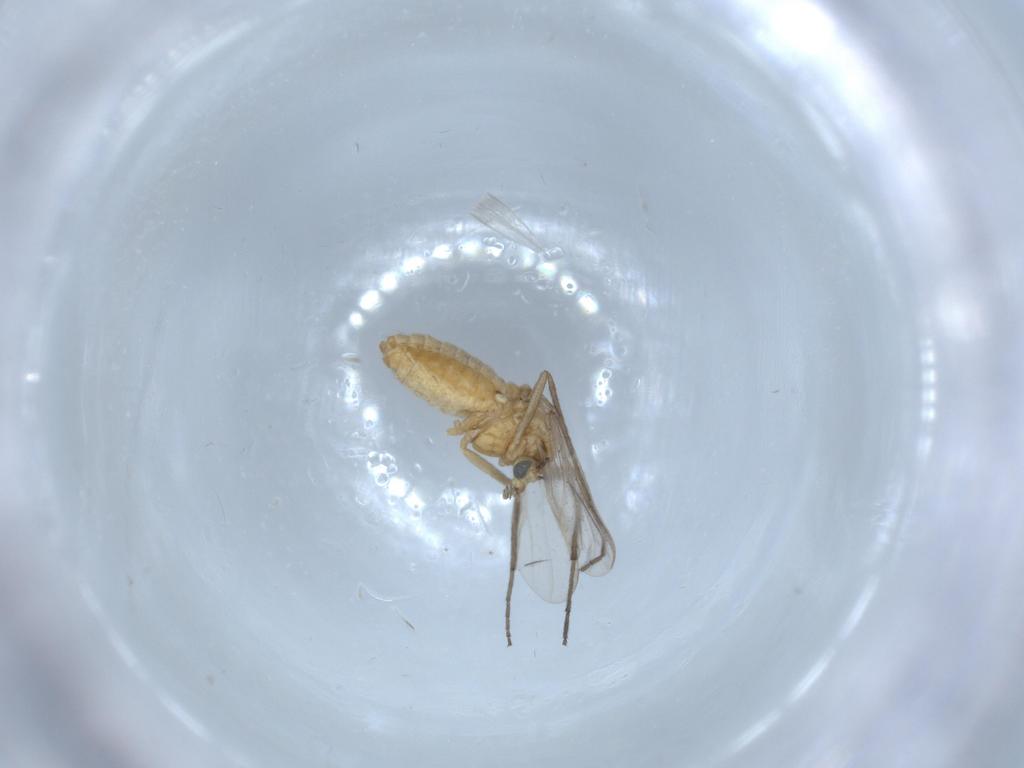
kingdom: Animalia
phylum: Arthropoda
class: Insecta
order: Diptera
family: Chironomidae
